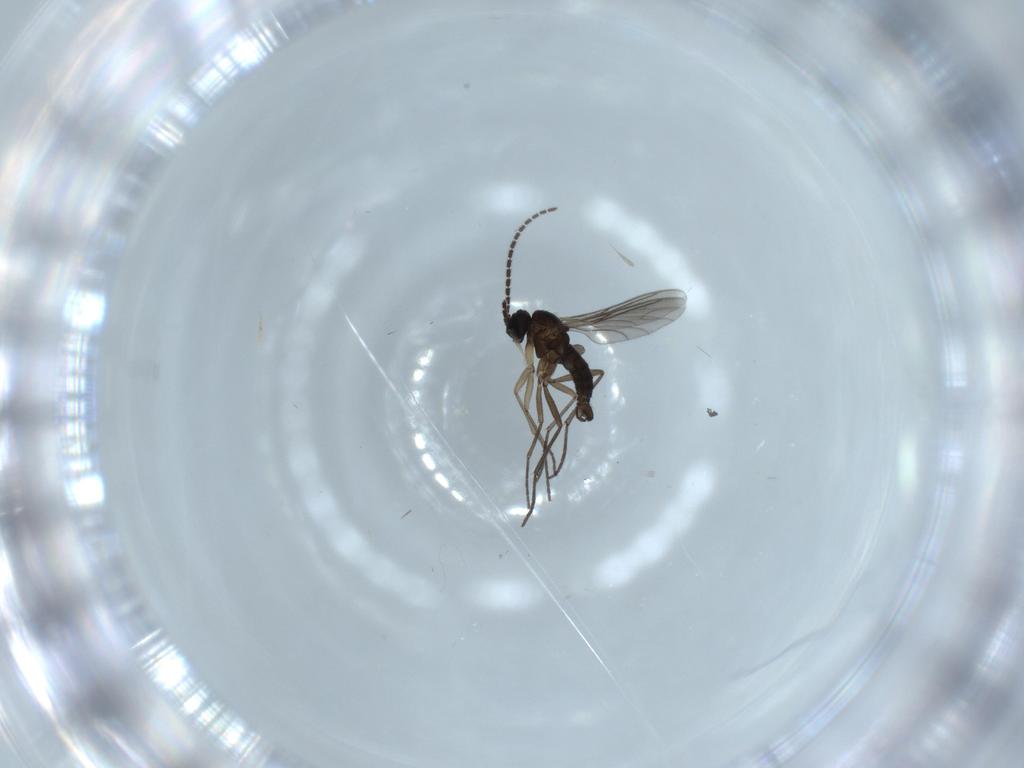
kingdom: Animalia
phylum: Arthropoda
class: Insecta
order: Diptera
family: Sciaridae
